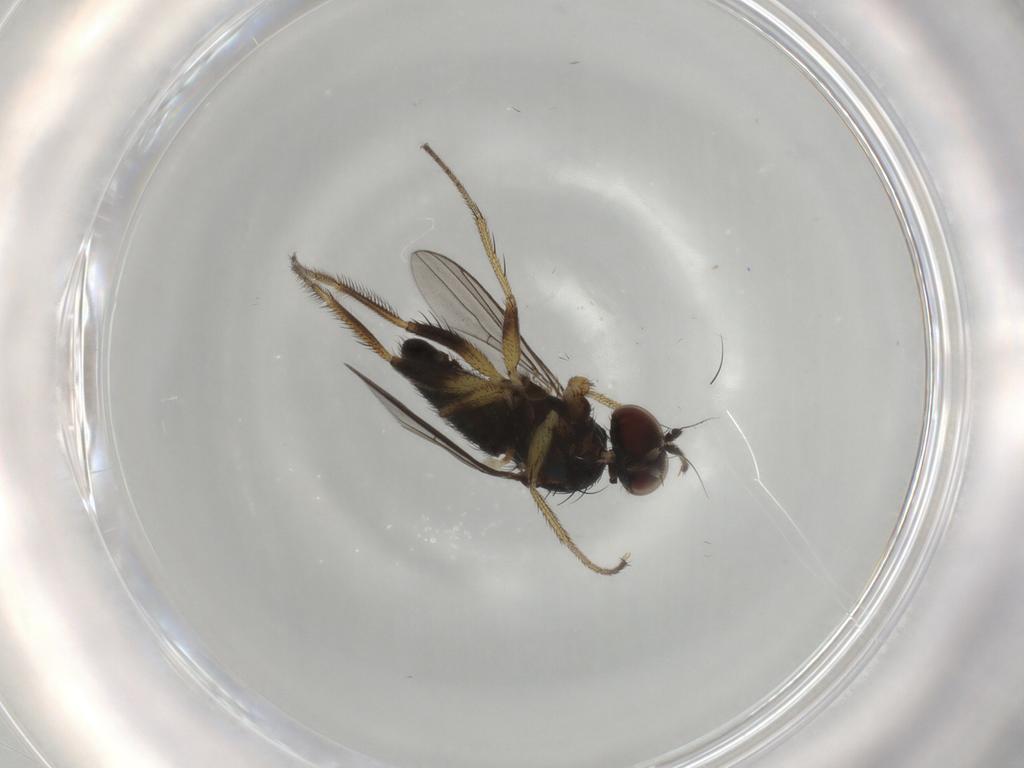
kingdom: Animalia
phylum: Arthropoda
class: Insecta
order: Diptera
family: Dolichopodidae
